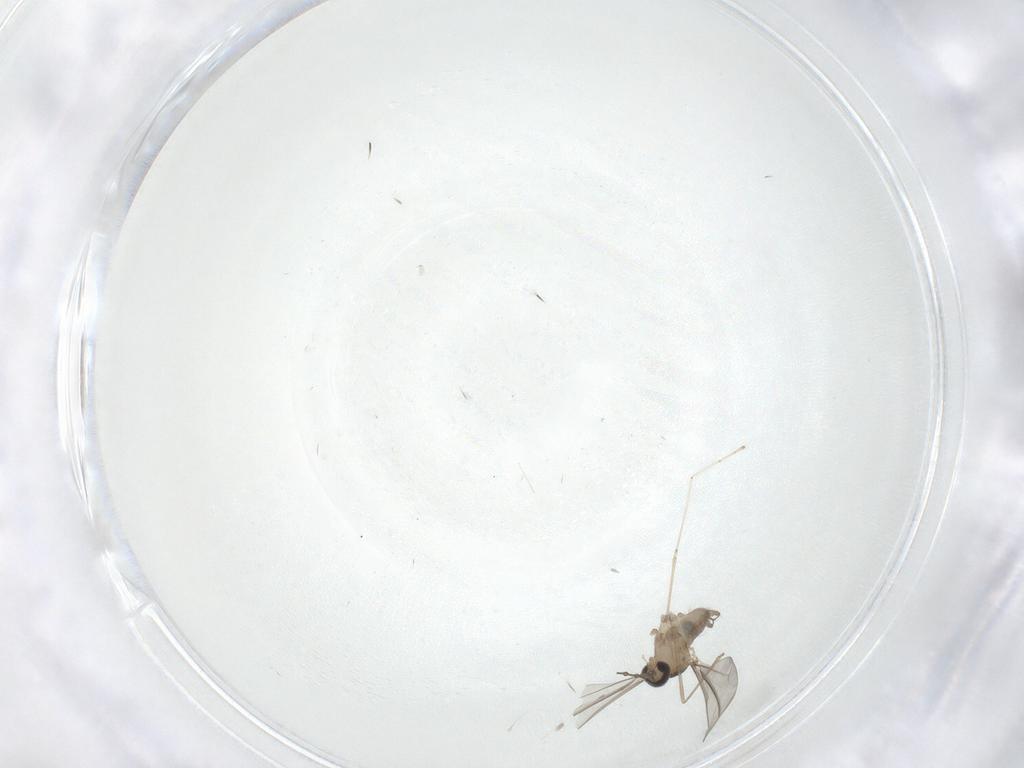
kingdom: Animalia
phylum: Arthropoda
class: Insecta
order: Diptera
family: Cecidomyiidae
